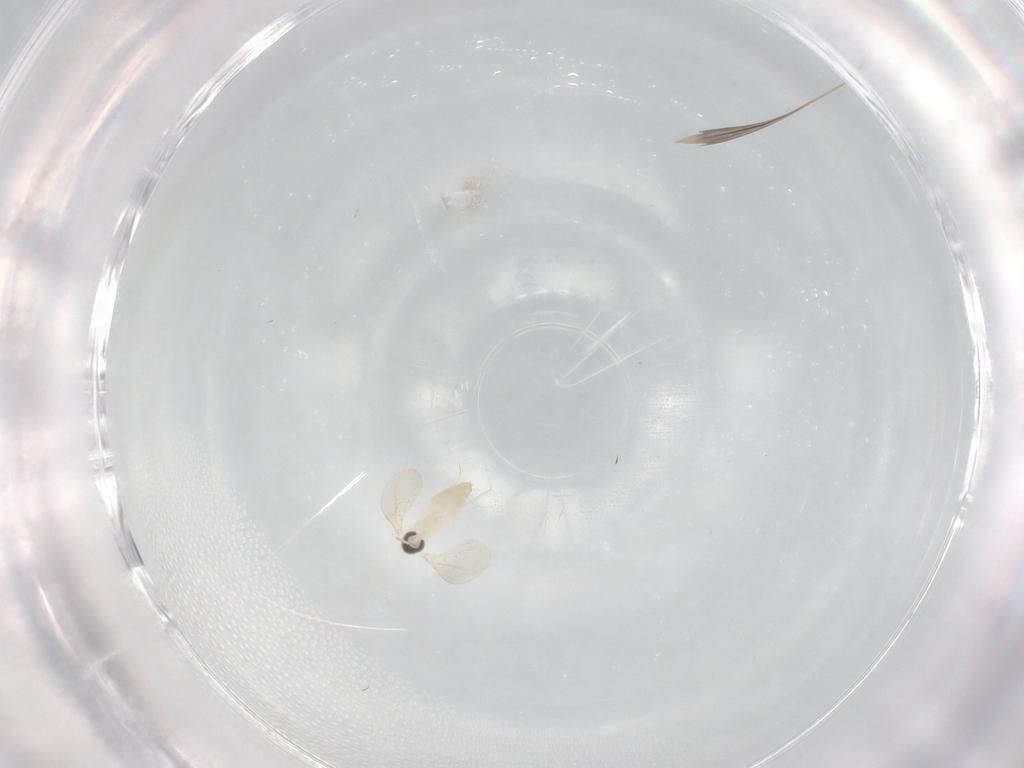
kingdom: Animalia
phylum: Arthropoda
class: Insecta
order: Diptera
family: Cecidomyiidae
